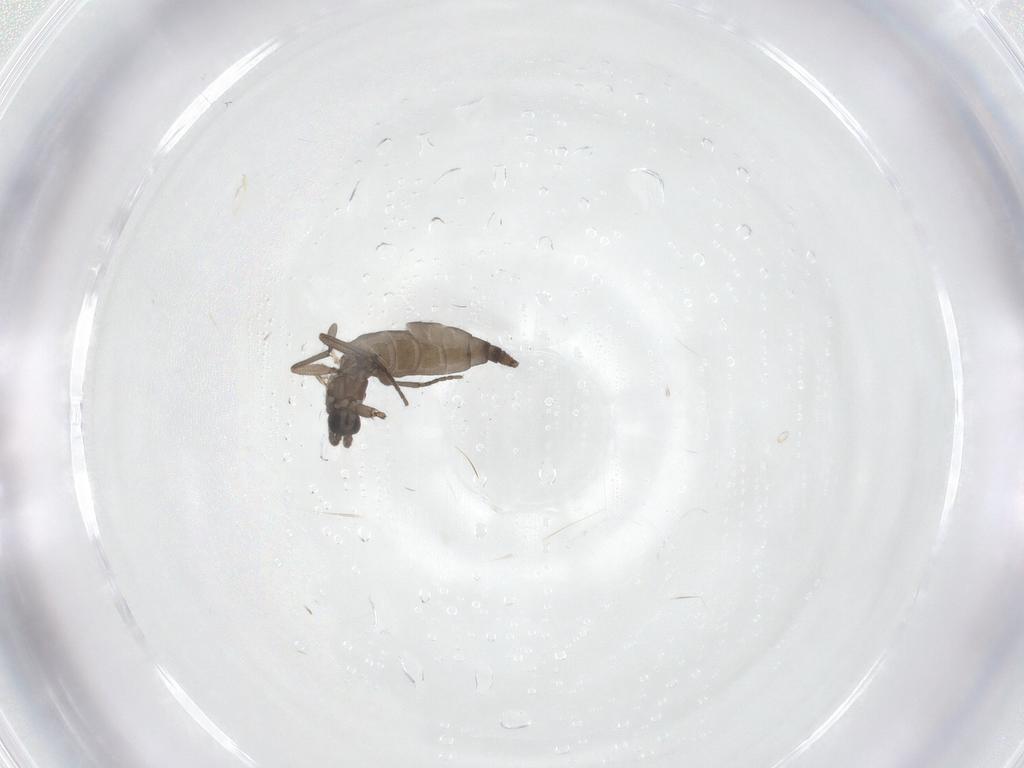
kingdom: Animalia
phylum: Arthropoda
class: Insecta
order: Diptera
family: Sciaridae
